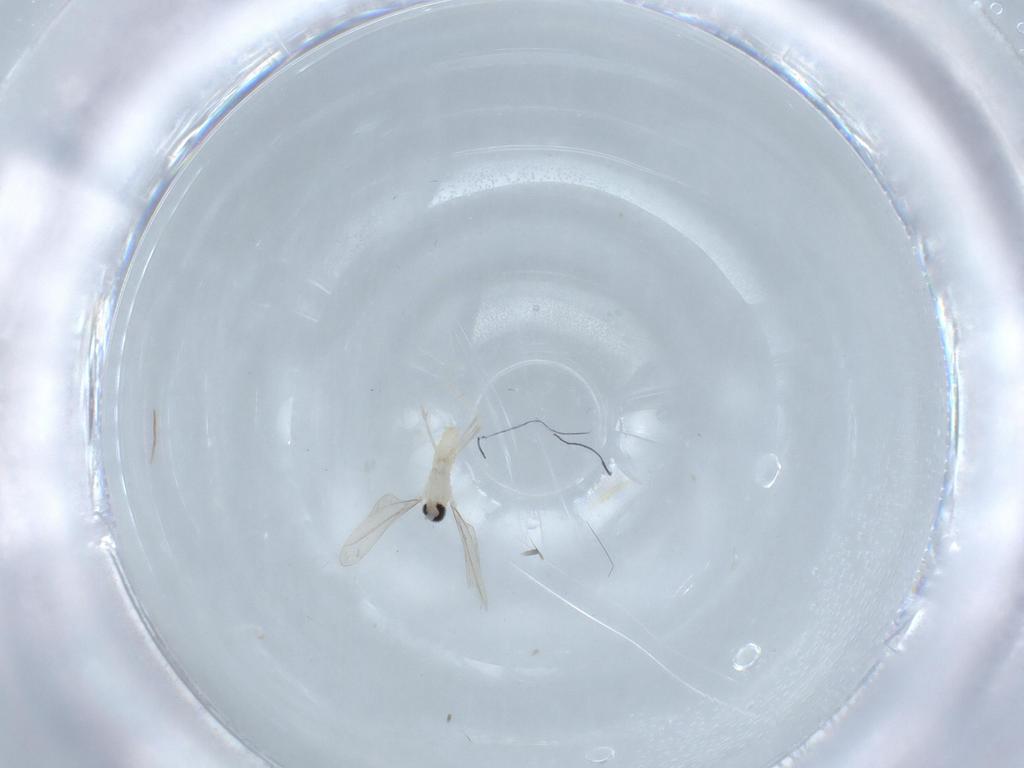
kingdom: Animalia
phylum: Arthropoda
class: Insecta
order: Diptera
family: Cecidomyiidae
